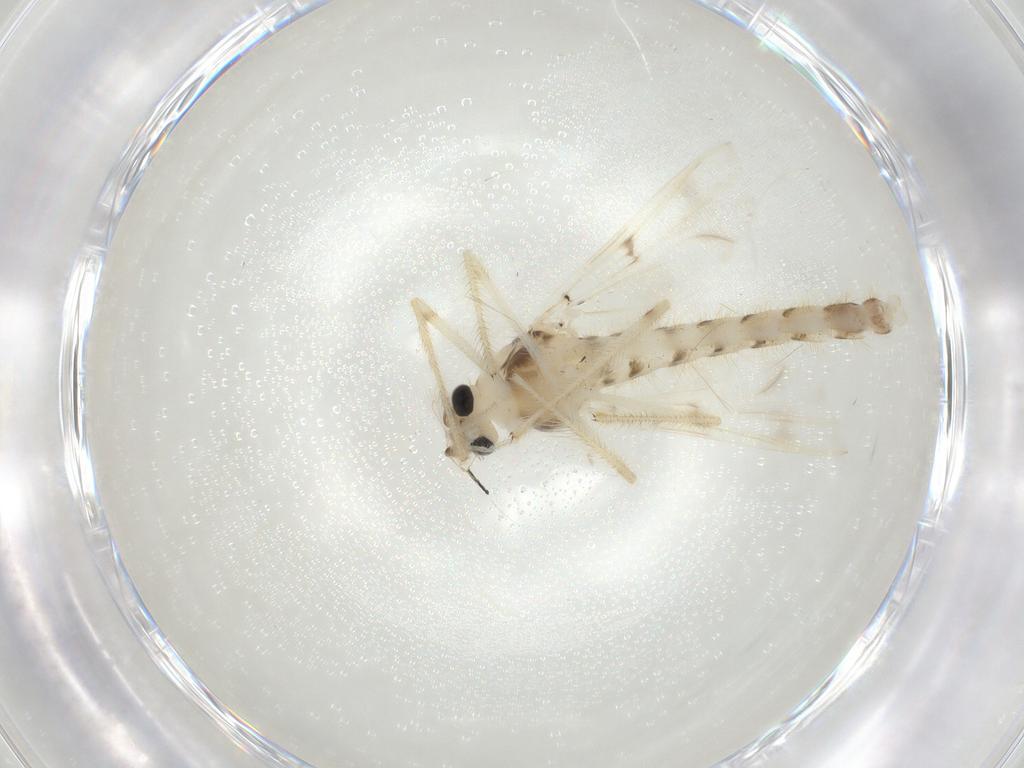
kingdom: Animalia
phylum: Arthropoda
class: Insecta
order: Diptera
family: Chironomidae
